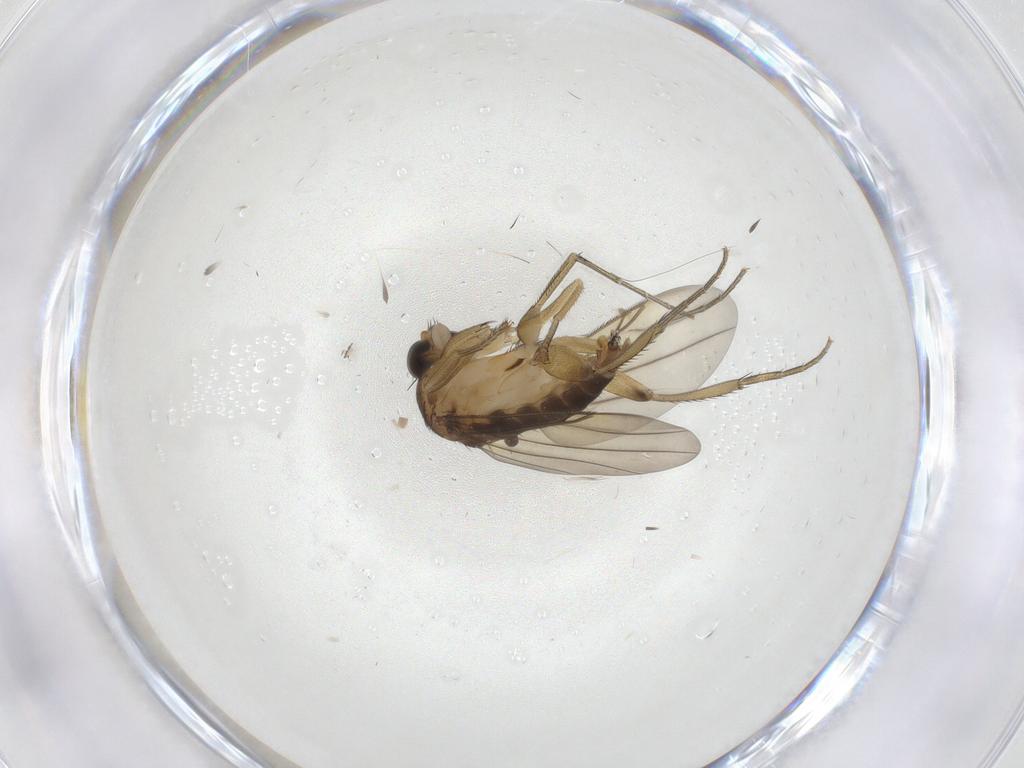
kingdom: Animalia
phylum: Arthropoda
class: Insecta
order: Diptera
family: Phoridae
